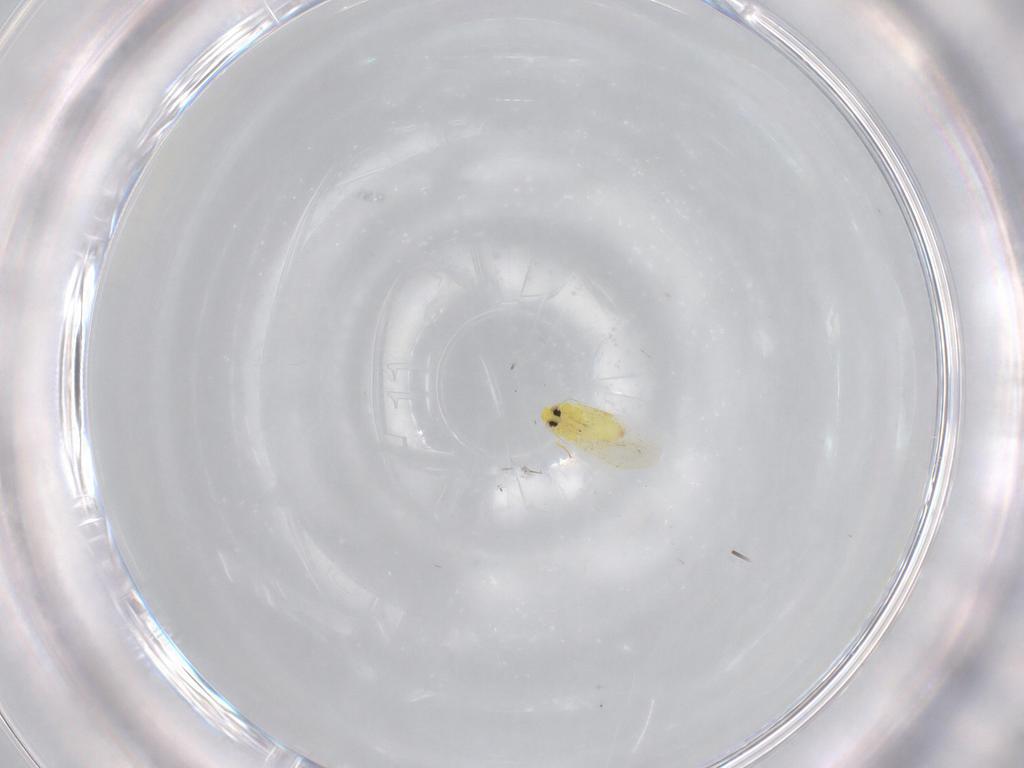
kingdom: Animalia
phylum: Arthropoda
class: Insecta
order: Hemiptera
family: Aleyrodidae
